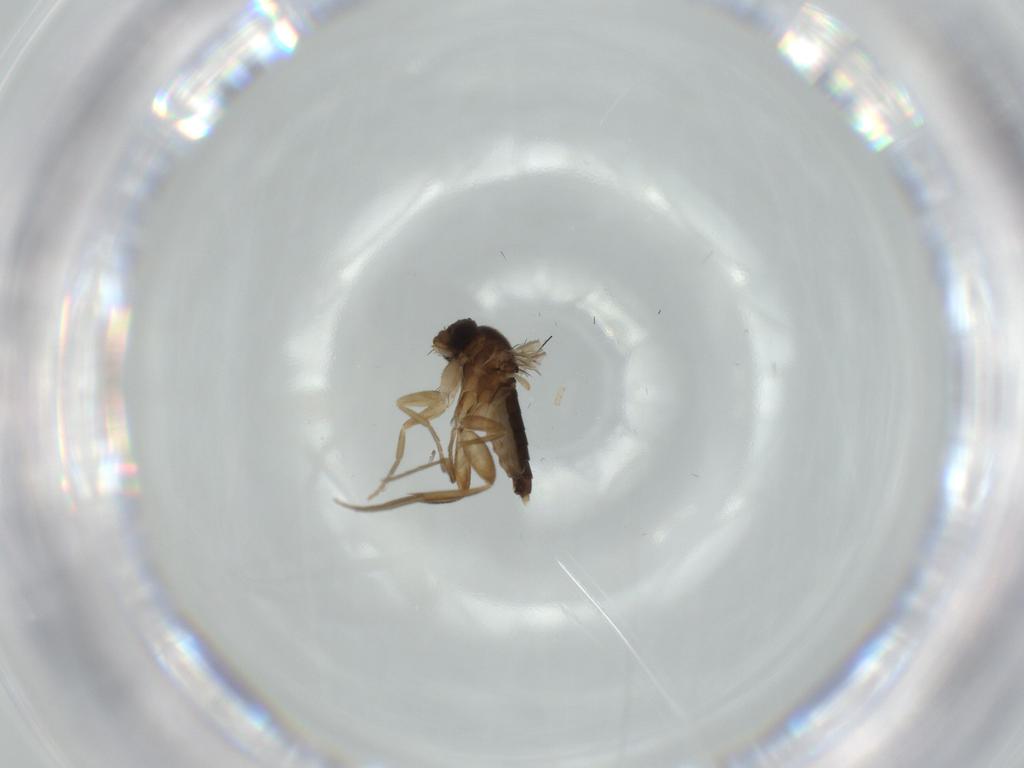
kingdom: Animalia
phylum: Arthropoda
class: Insecta
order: Diptera
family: Phoridae
